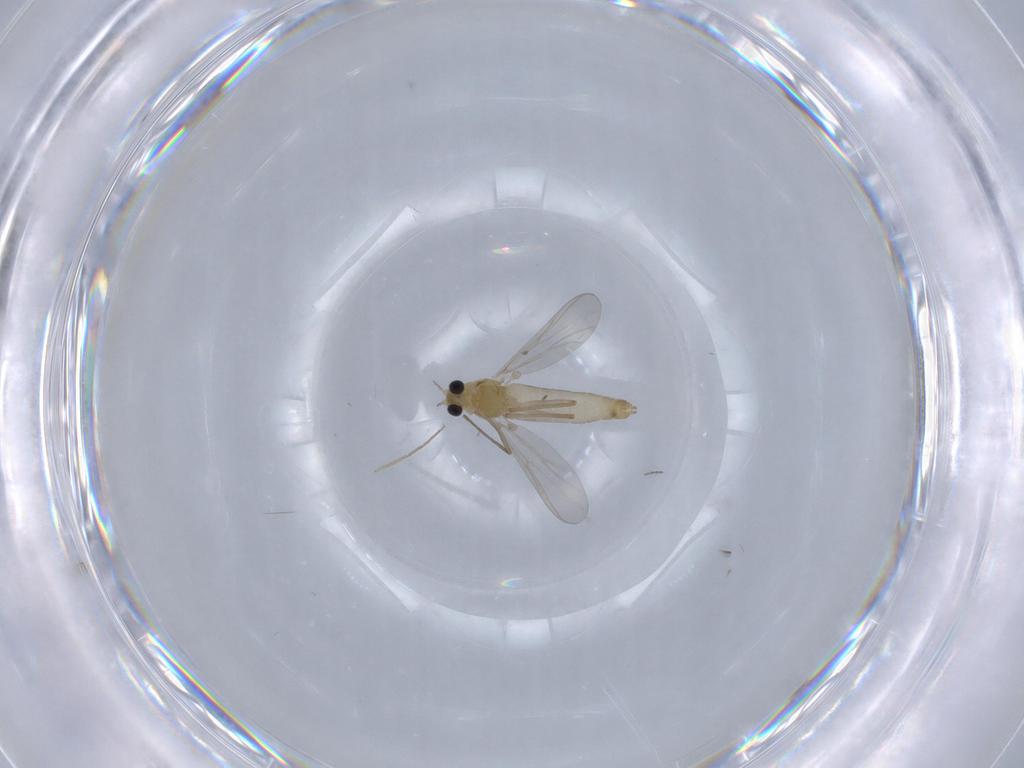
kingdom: Animalia
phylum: Arthropoda
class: Insecta
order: Diptera
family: Chironomidae
